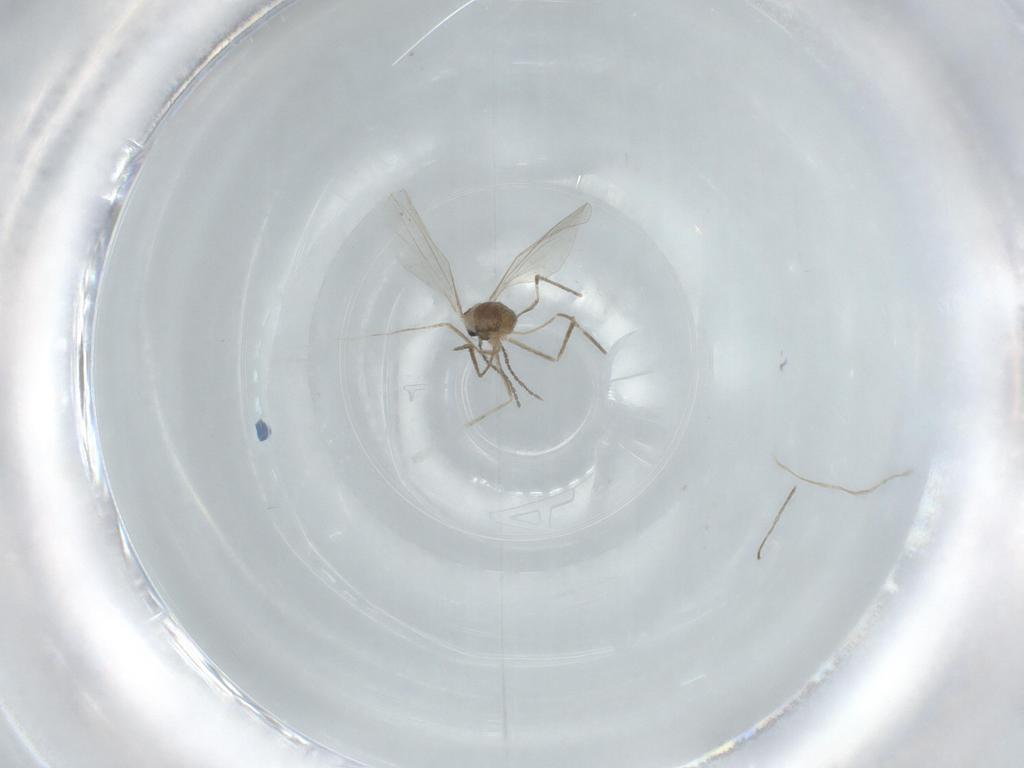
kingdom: Animalia
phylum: Arthropoda
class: Insecta
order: Diptera
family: Cecidomyiidae
